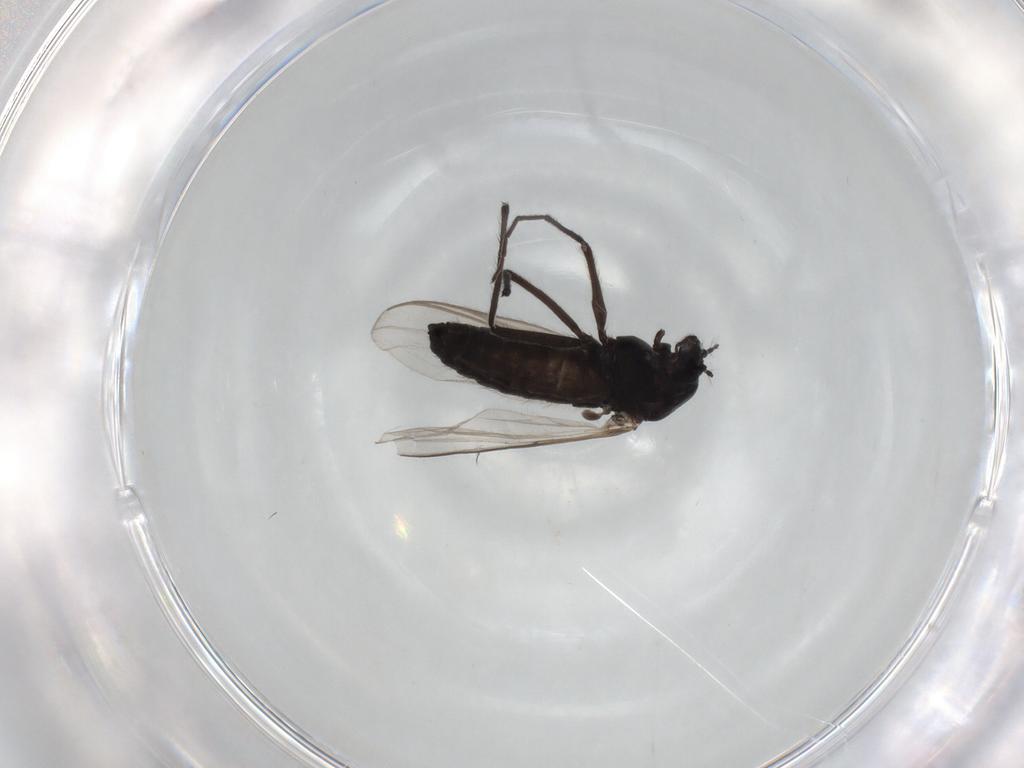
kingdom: Animalia
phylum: Arthropoda
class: Insecta
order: Diptera
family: Chironomidae
